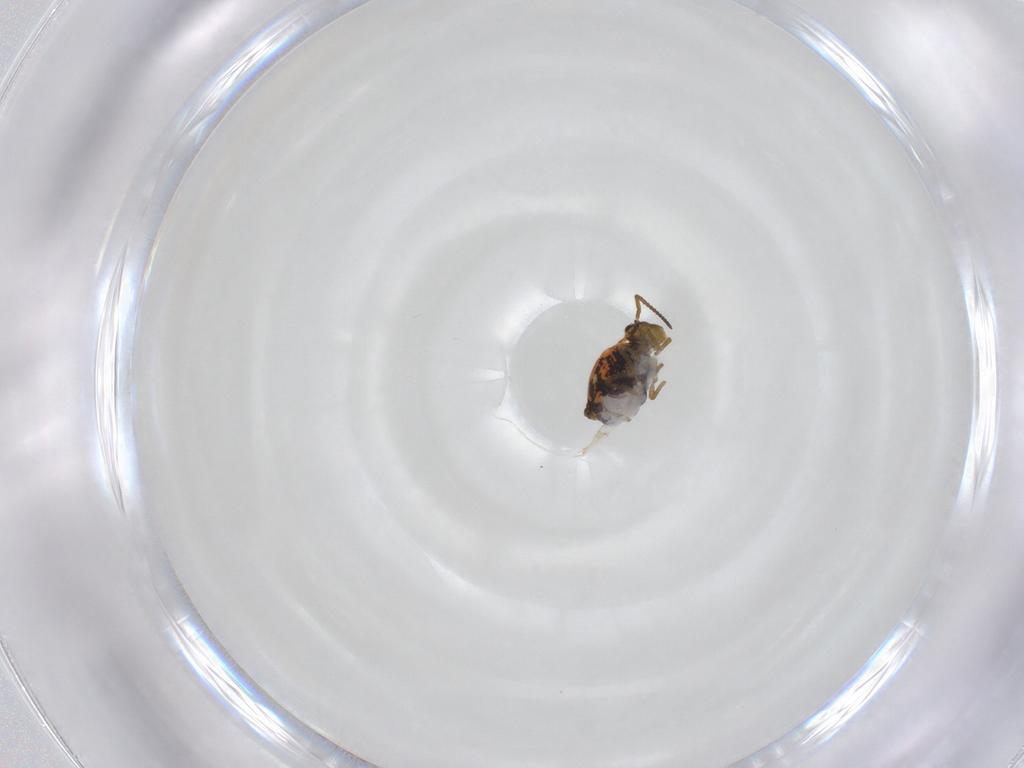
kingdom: Animalia
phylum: Arthropoda
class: Collembola
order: Symphypleona
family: Katiannidae
